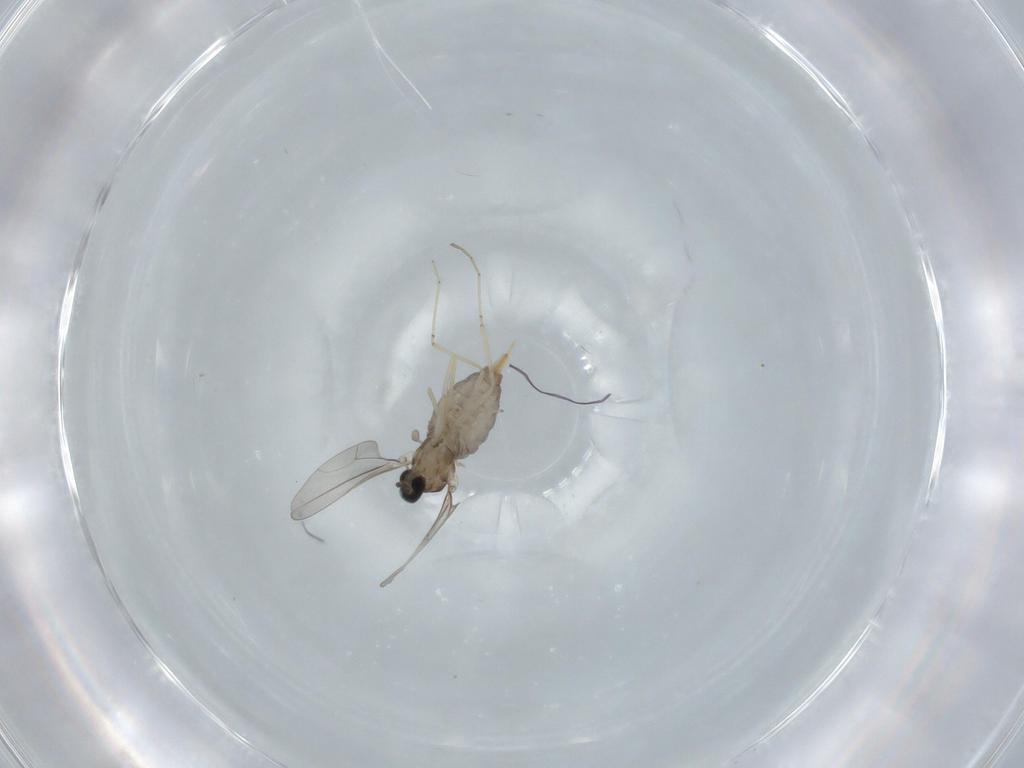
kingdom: Animalia
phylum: Arthropoda
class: Insecta
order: Diptera
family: Cecidomyiidae
